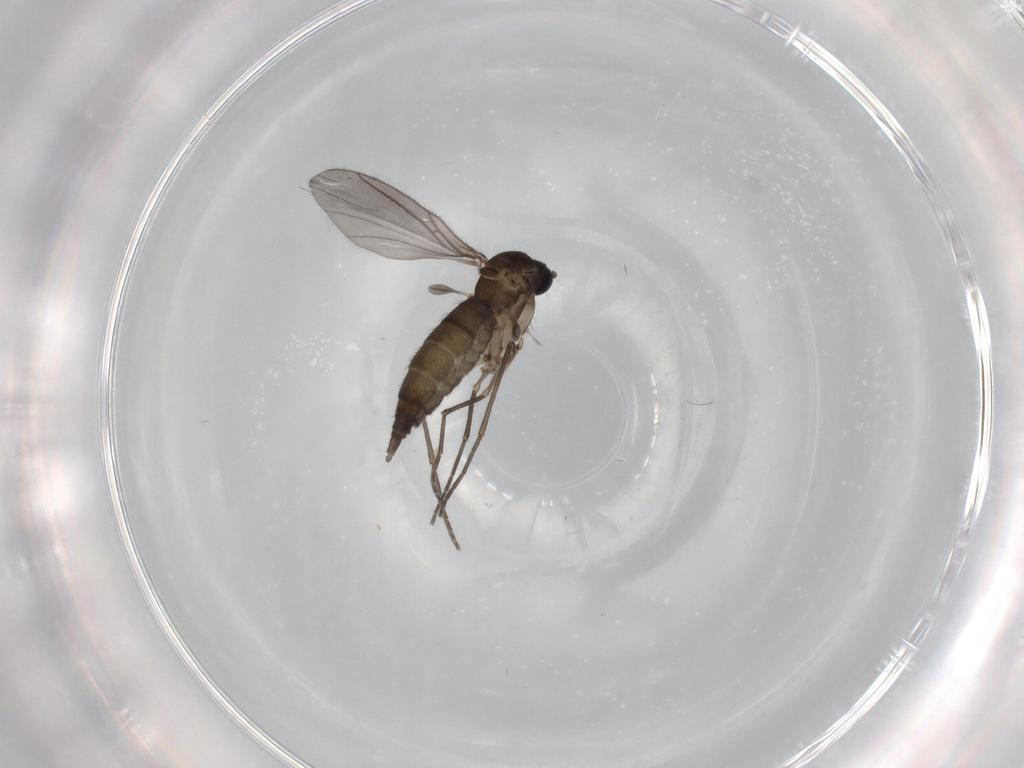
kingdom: Animalia
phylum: Arthropoda
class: Insecta
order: Diptera
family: Sciaridae
